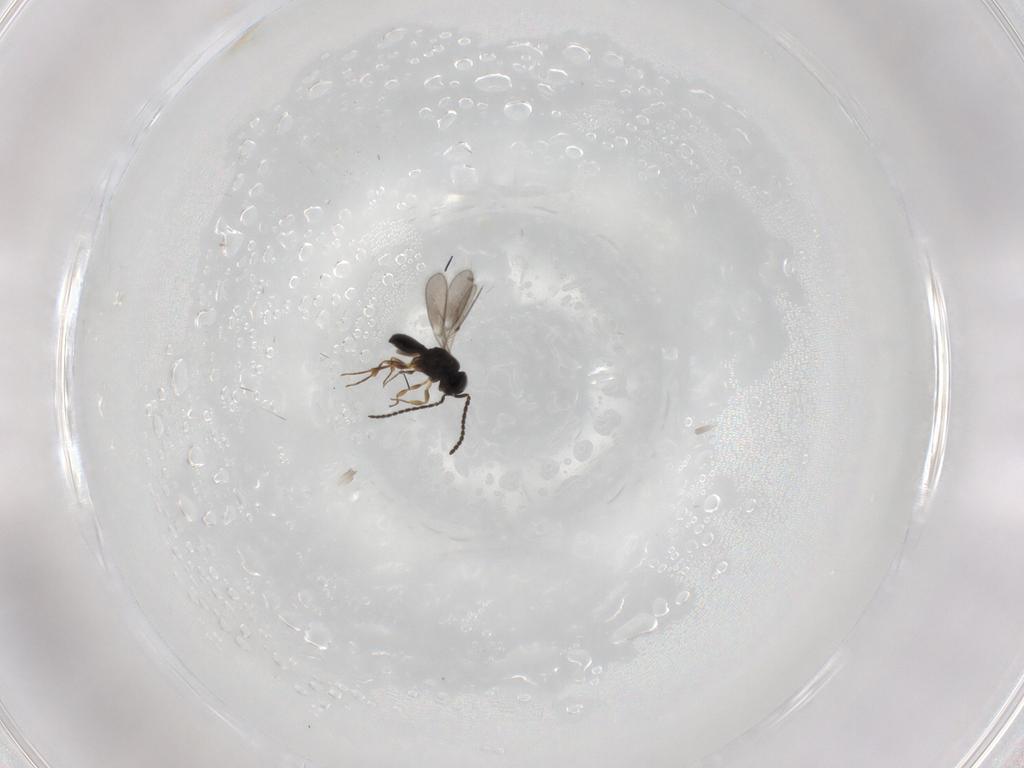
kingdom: Animalia
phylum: Arthropoda
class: Insecta
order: Hymenoptera
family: Scelionidae
